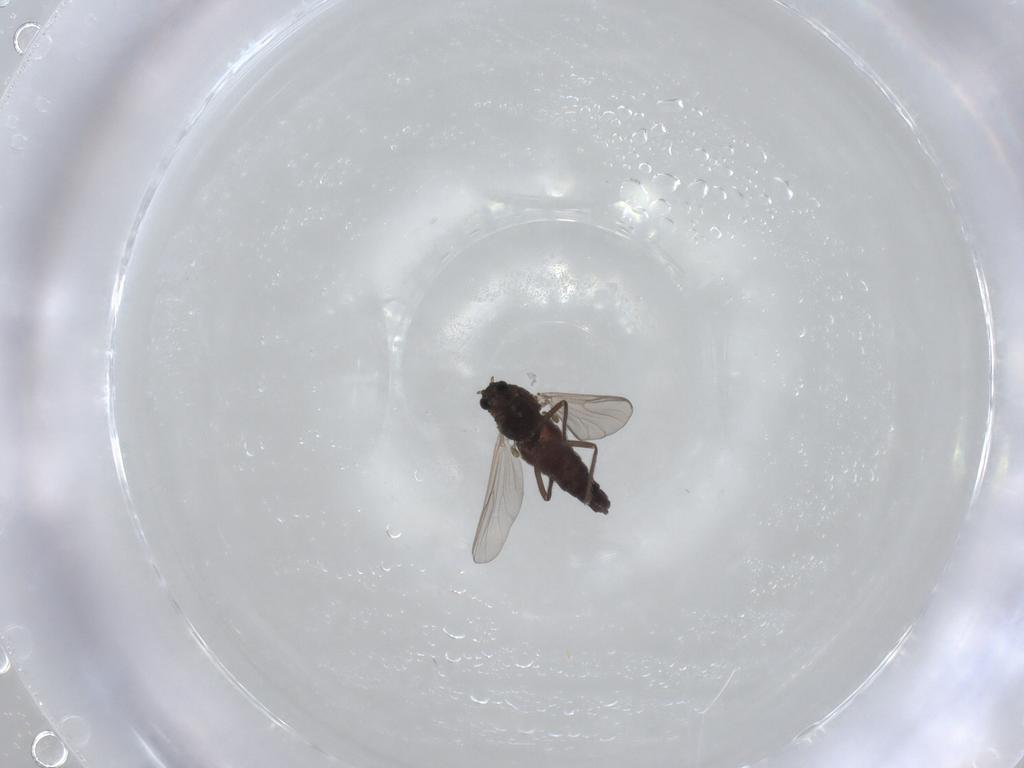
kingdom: Animalia
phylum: Arthropoda
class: Insecta
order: Diptera
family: Chironomidae
